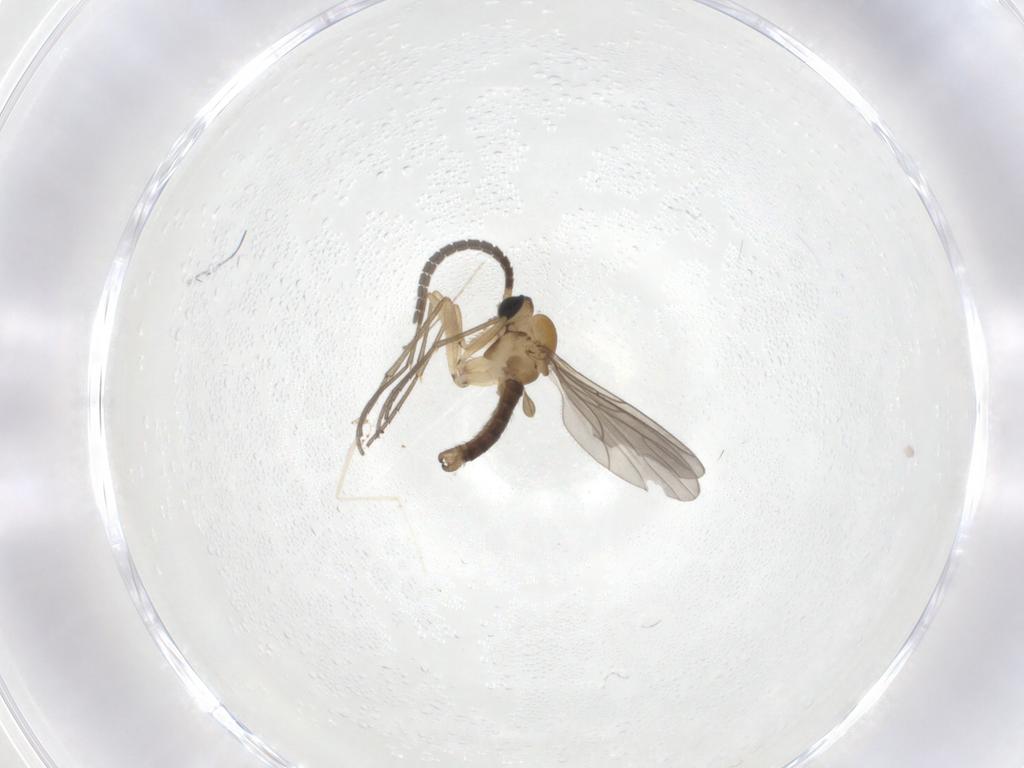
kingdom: Animalia
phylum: Arthropoda
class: Insecta
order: Diptera
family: Sciaridae
